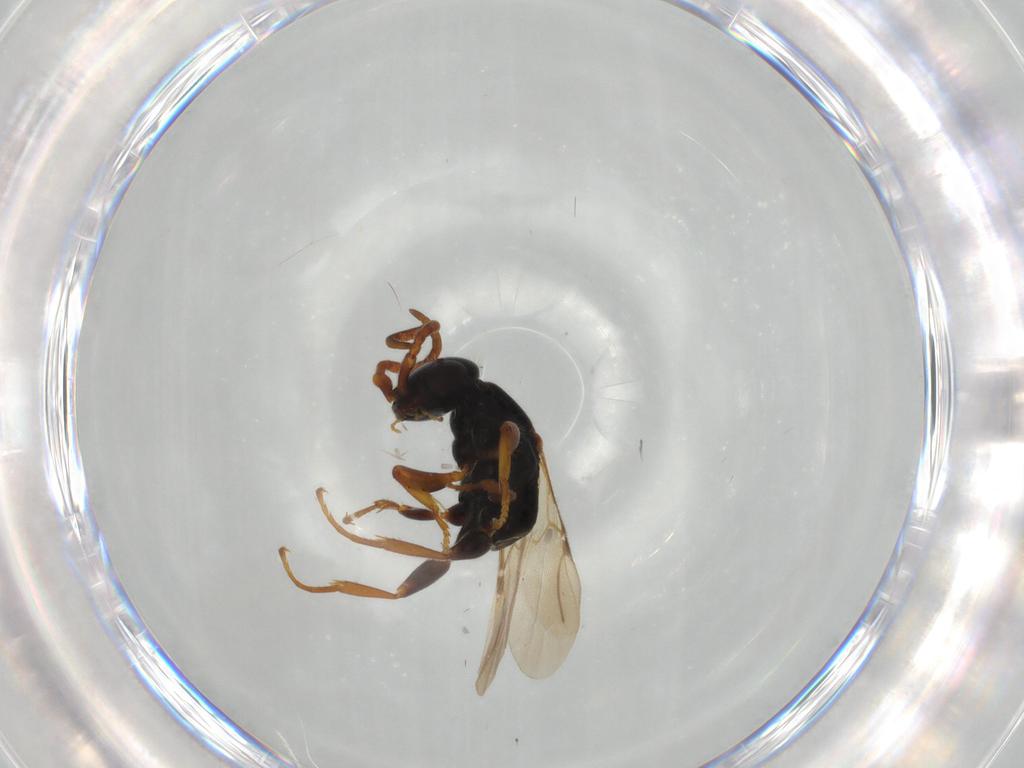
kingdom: Animalia
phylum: Arthropoda
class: Insecta
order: Hymenoptera
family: Bethylidae
